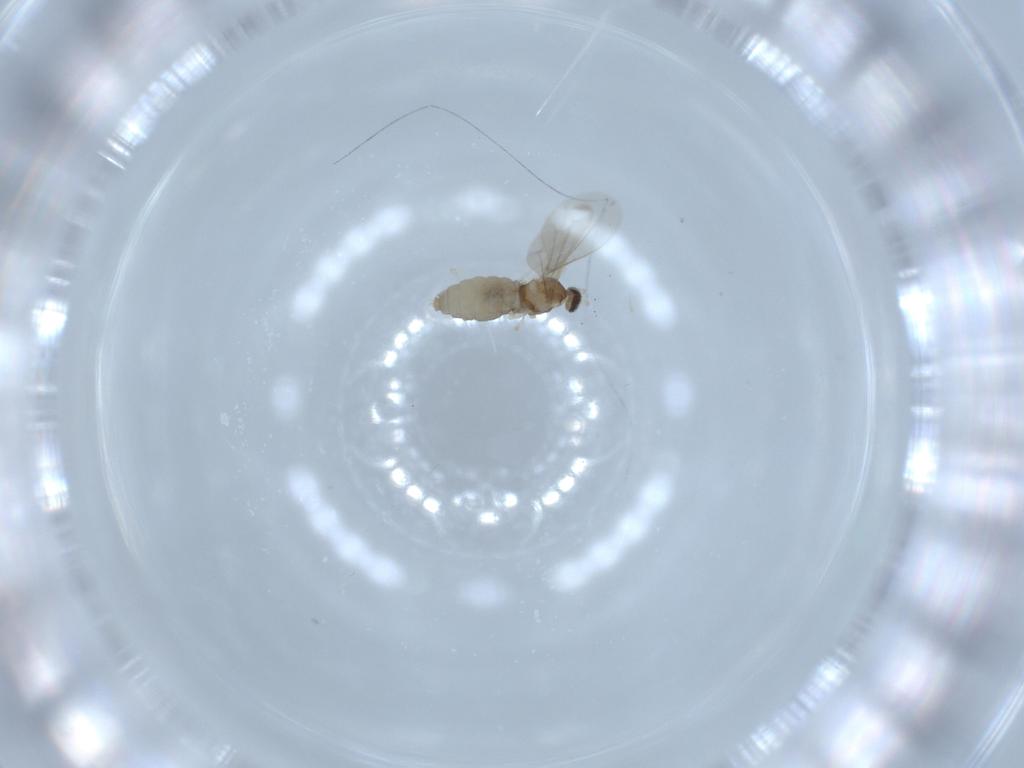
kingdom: Animalia
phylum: Arthropoda
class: Insecta
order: Diptera
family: Cecidomyiidae
